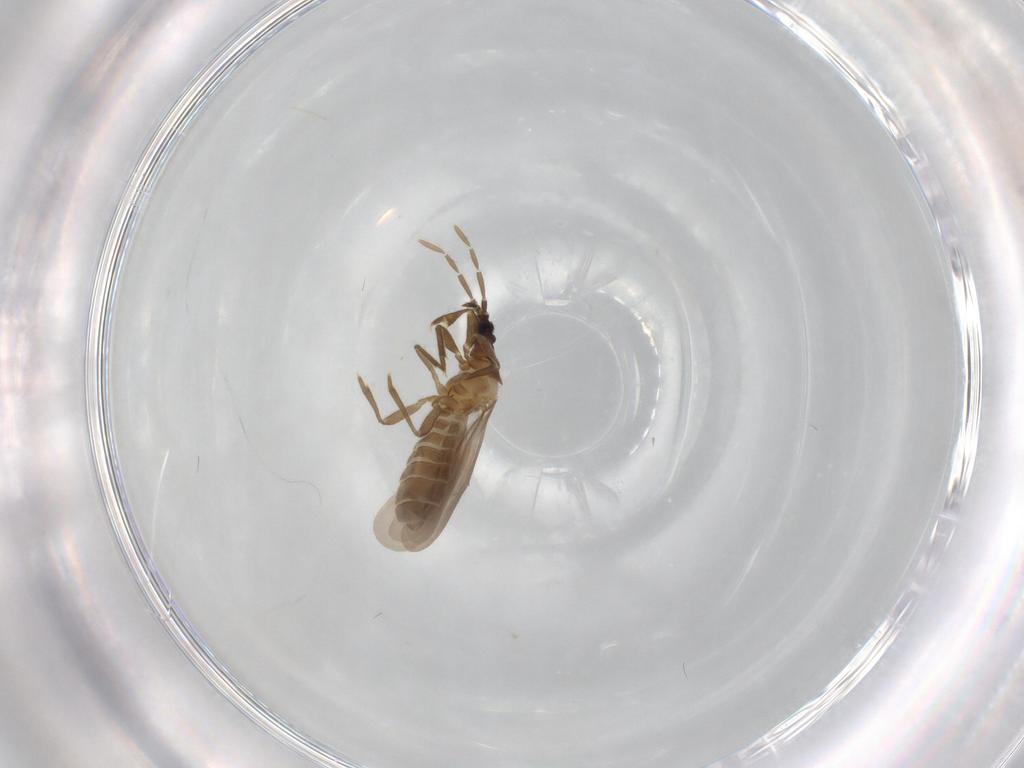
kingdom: Animalia
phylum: Arthropoda
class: Insecta
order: Hemiptera
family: Enicocephalidae
